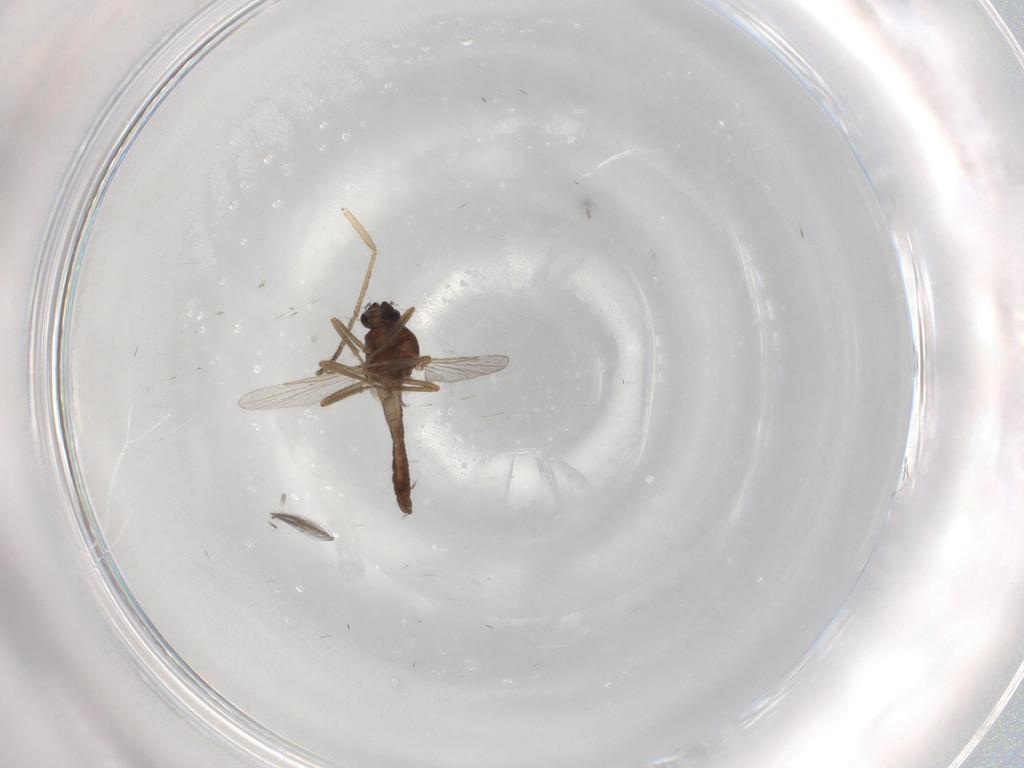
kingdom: Animalia
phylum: Arthropoda
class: Insecta
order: Diptera
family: Ceratopogonidae
